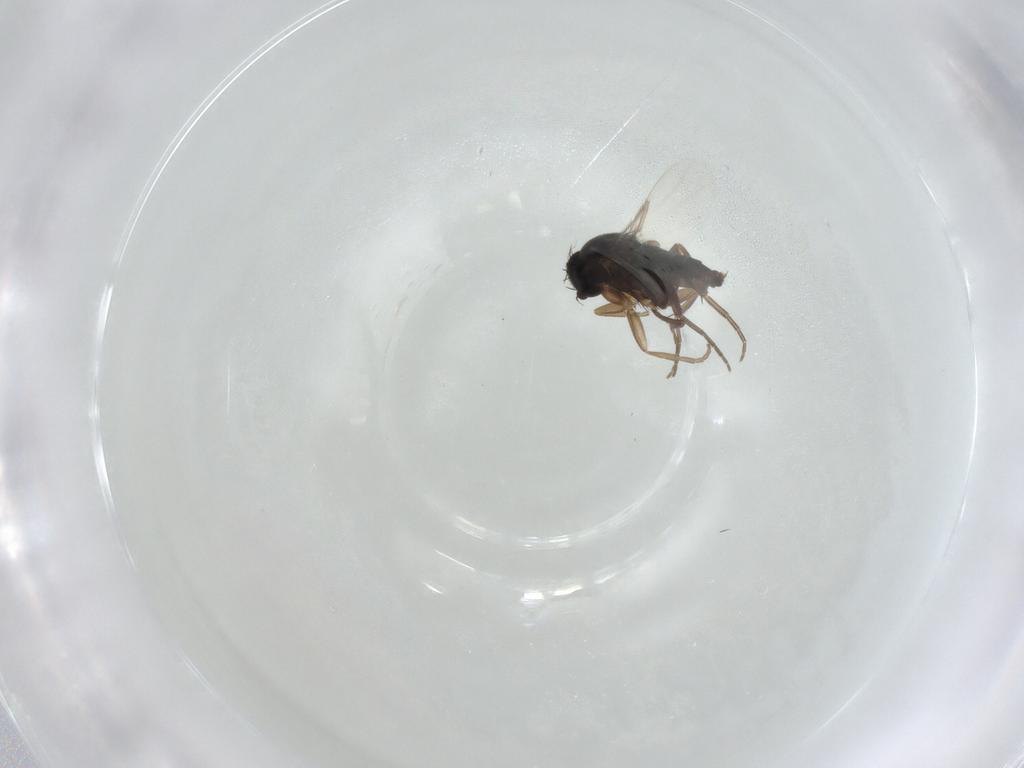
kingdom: Animalia
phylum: Arthropoda
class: Insecta
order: Diptera
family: Phoridae
